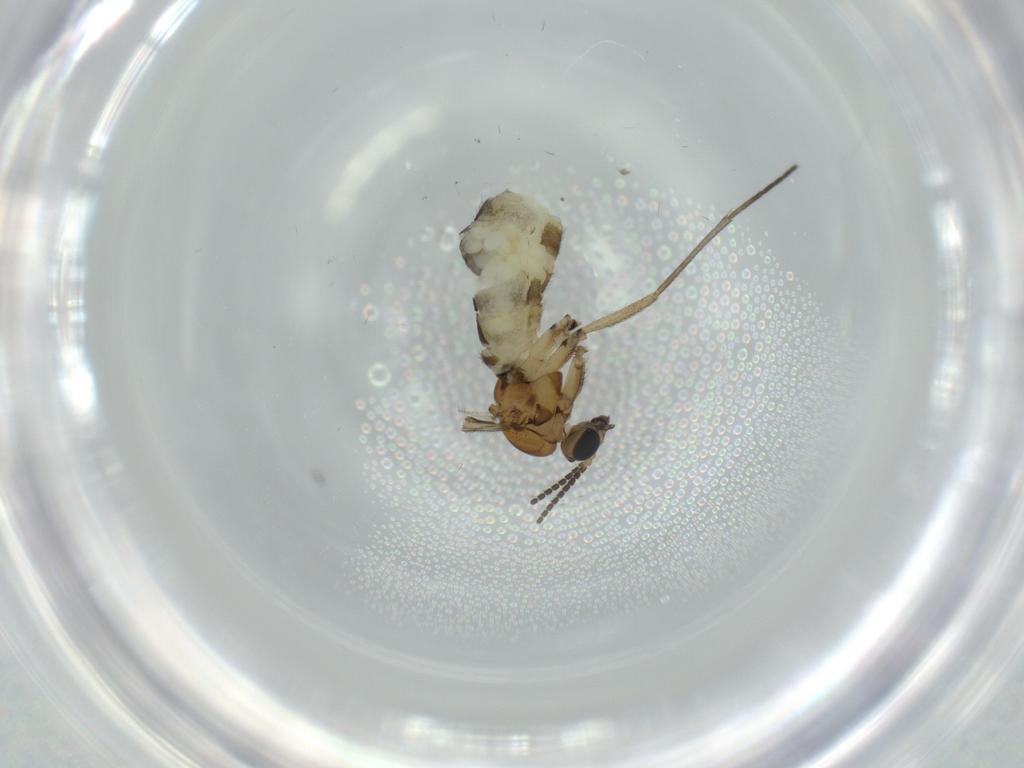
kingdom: Animalia
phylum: Arthropoda
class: Insecta
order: Diptera
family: Sciaridae
